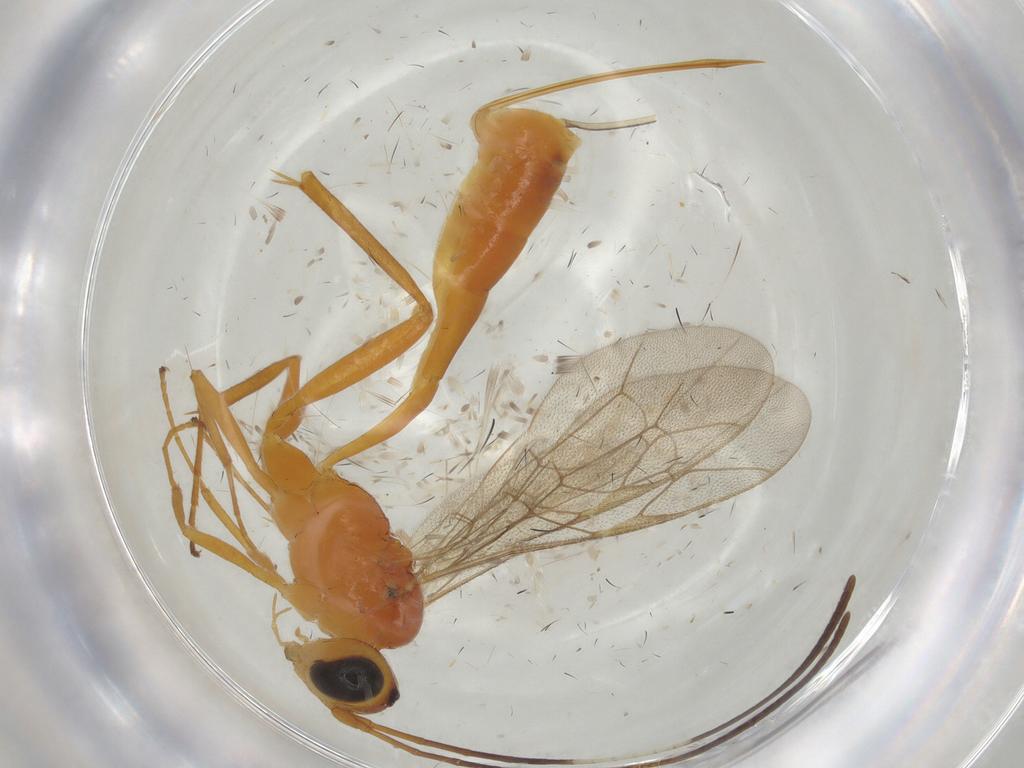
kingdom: Animalia
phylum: Arthropoda
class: Insecta
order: Hymenoptera
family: Ichneumonidae
